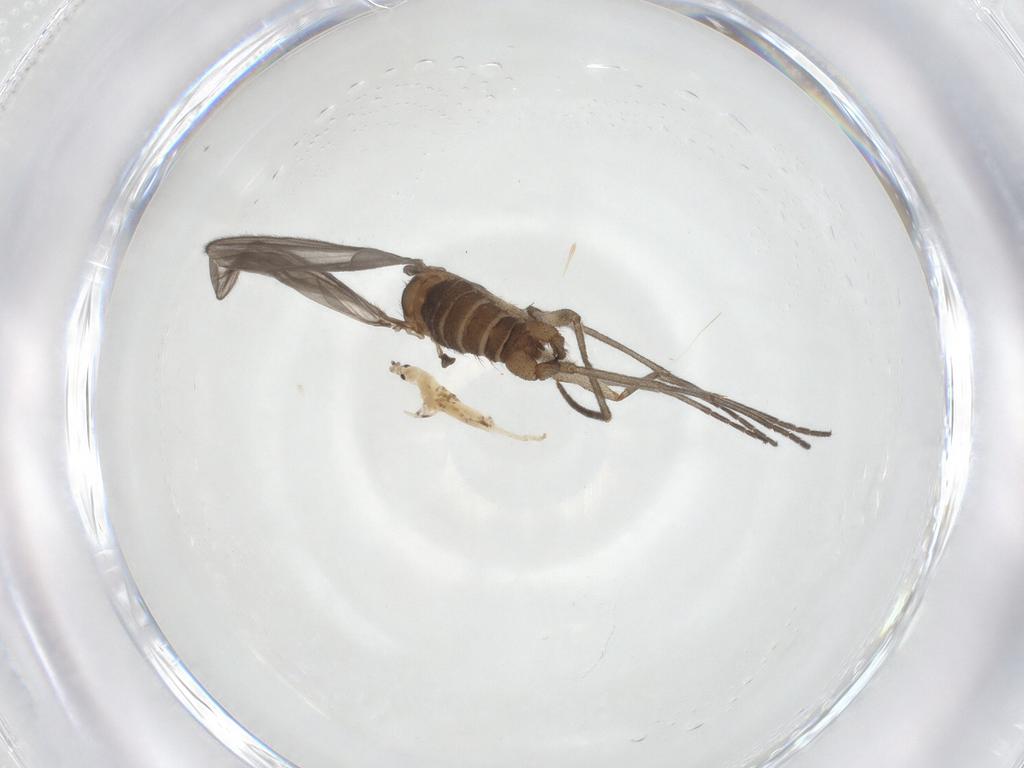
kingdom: Animalia
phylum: Arthropoda
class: Insecta
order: Diptera
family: Sciaridae
